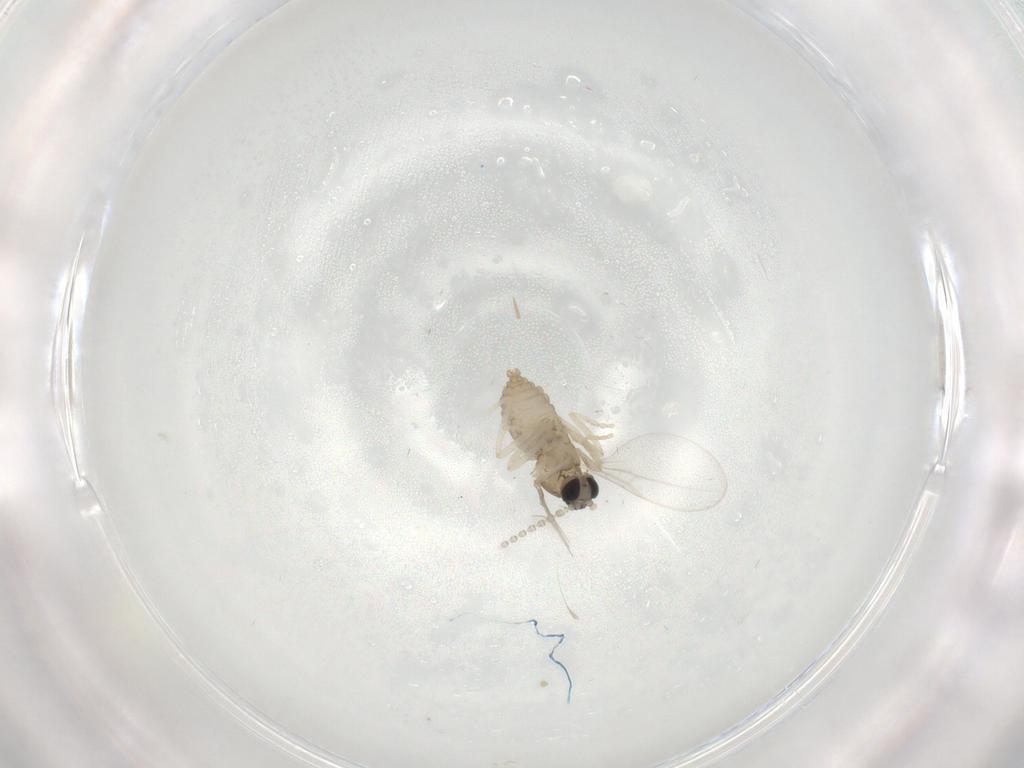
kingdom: Animalia
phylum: Arthropoda
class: Insecta
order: Diptera
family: Cecidomyiidae
